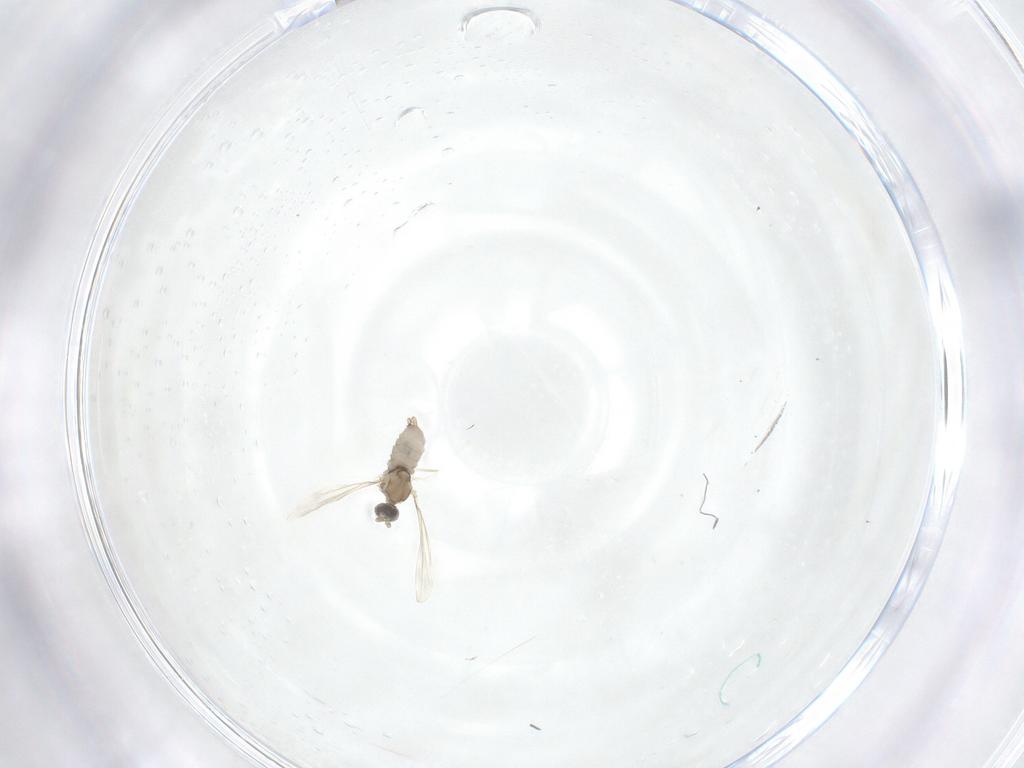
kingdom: Animalia
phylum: Arthropoda
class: Insecta
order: Diptera
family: Cecidomyiidae
